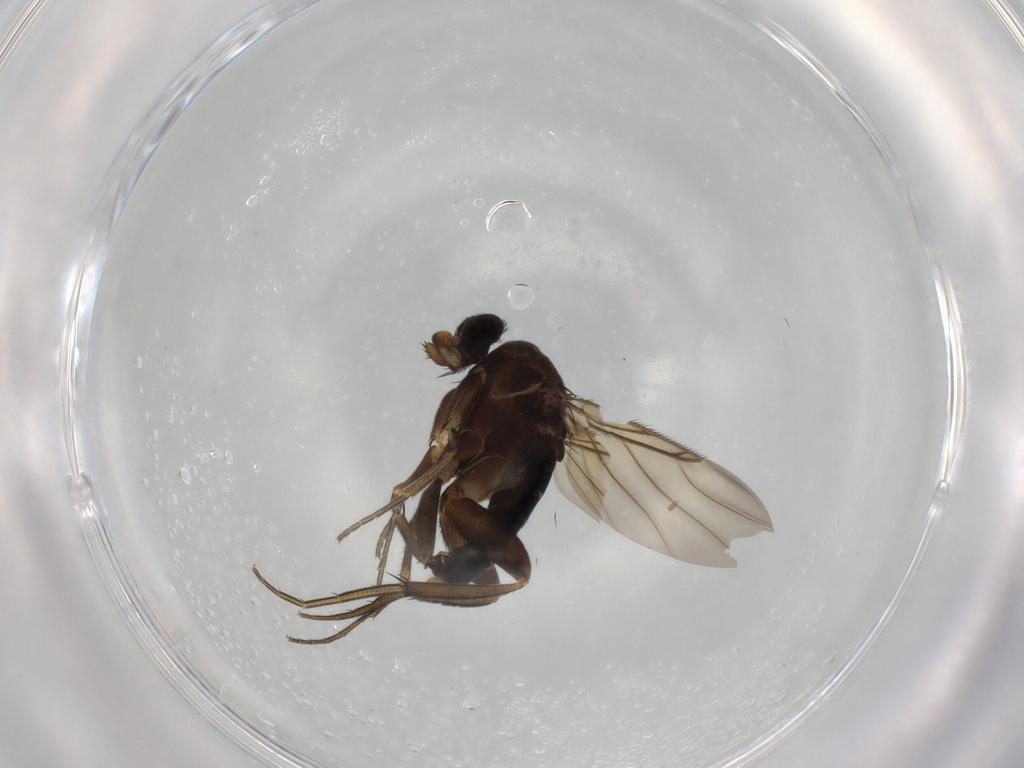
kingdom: Animalia
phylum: Arthropoda
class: Insecta
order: Diptera
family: Phoridae
